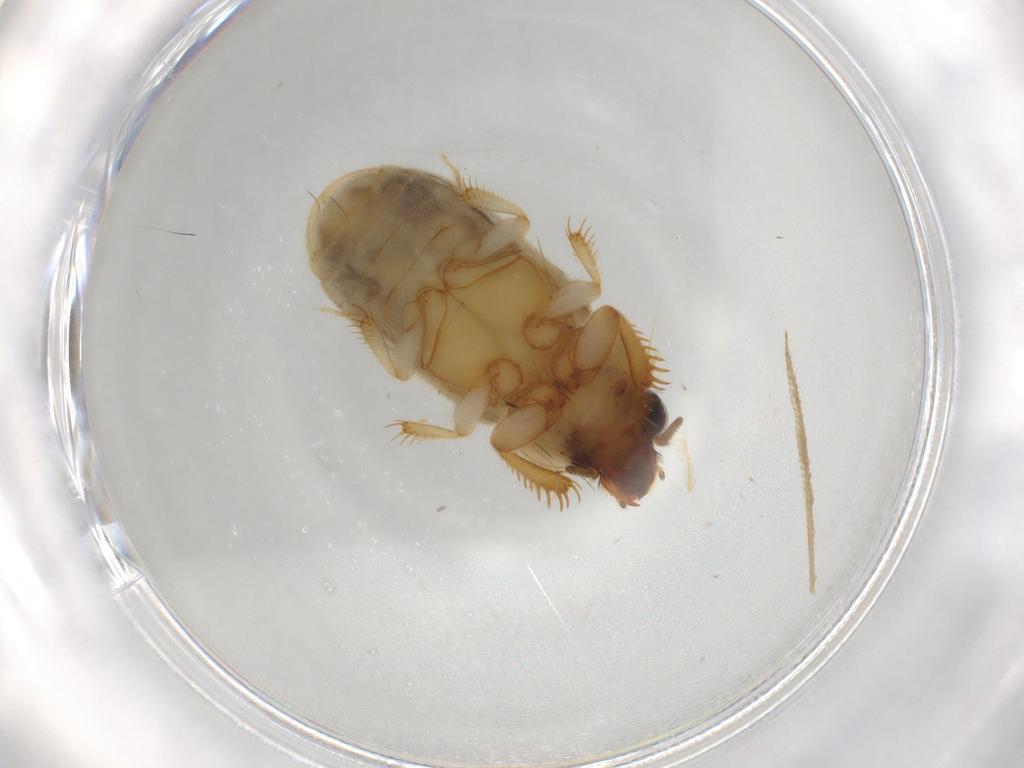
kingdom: Animalia
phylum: Arthropoda
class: Insecta
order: Coleoptera
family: Heteroceridae
